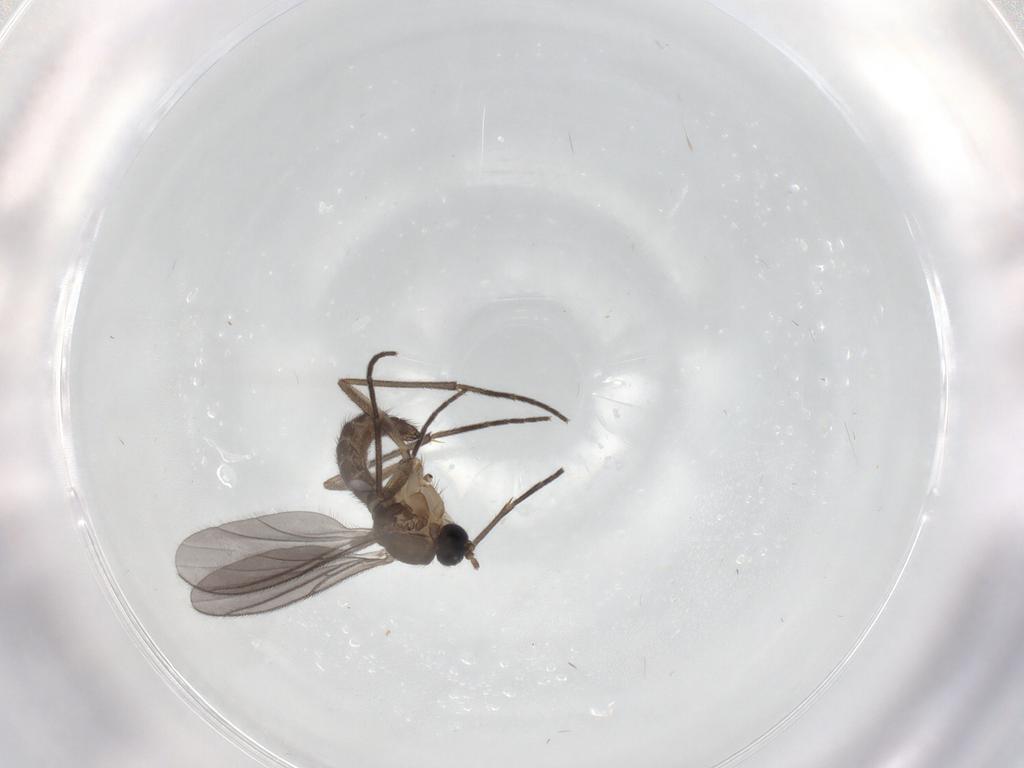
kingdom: Animalia
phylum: Arthropoda
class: Insecta
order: Diptera
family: Sciaridae
